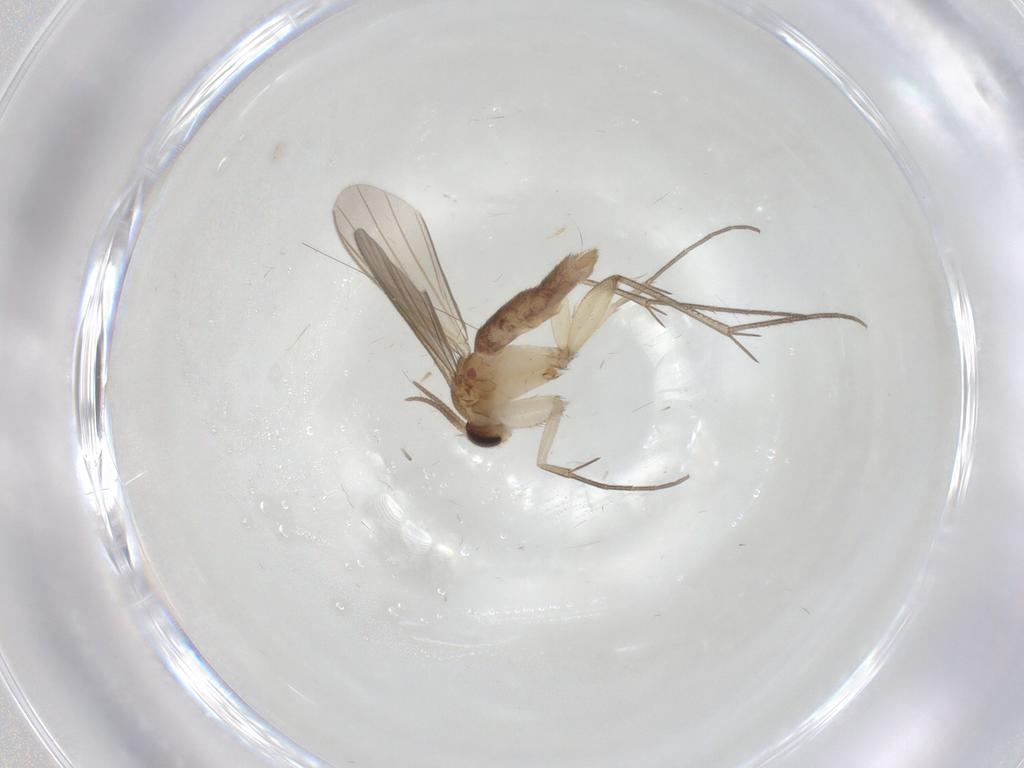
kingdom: Animalia
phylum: Arthropoda
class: Insecta
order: Diptera
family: Mycetophilidae
